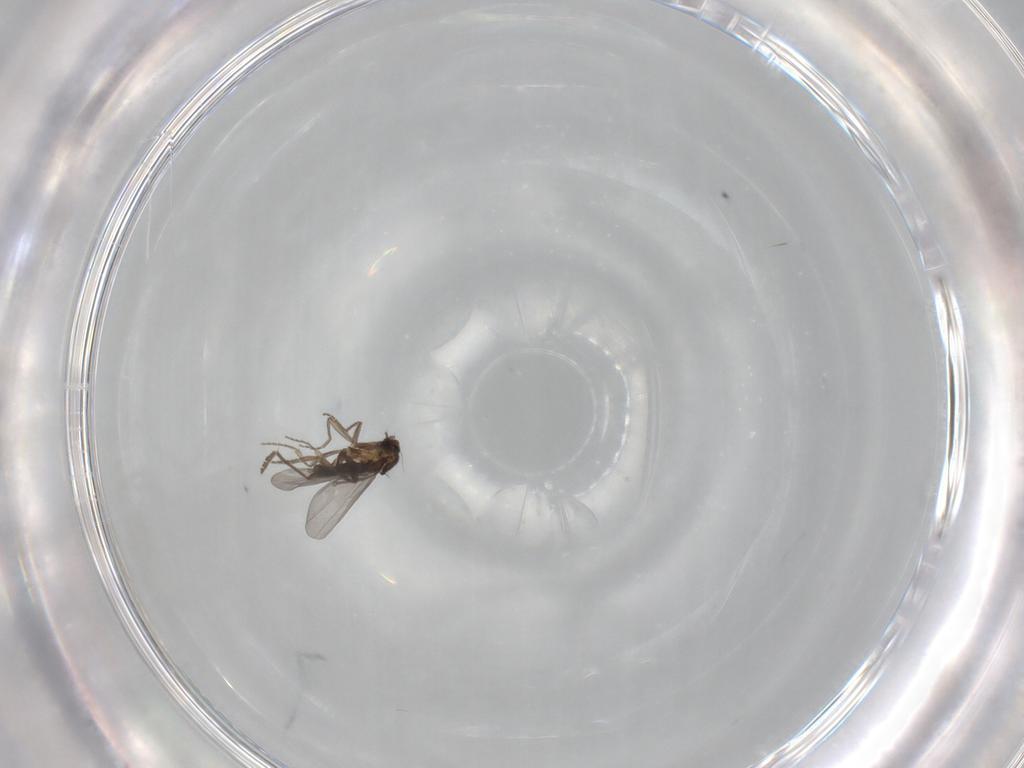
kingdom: Animalia
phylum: Arthropoda
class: Insecta
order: Diptera
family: Phoridae
